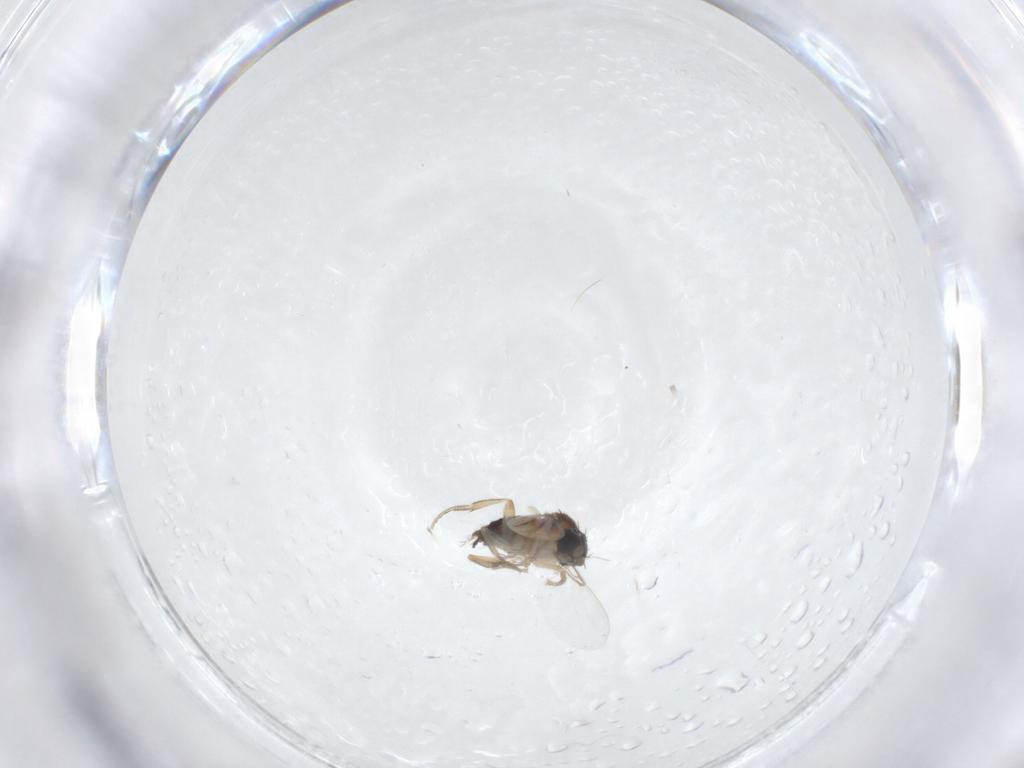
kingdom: Animalia
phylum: Arthropoda
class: Insecta
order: Diptera
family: Phoridae
